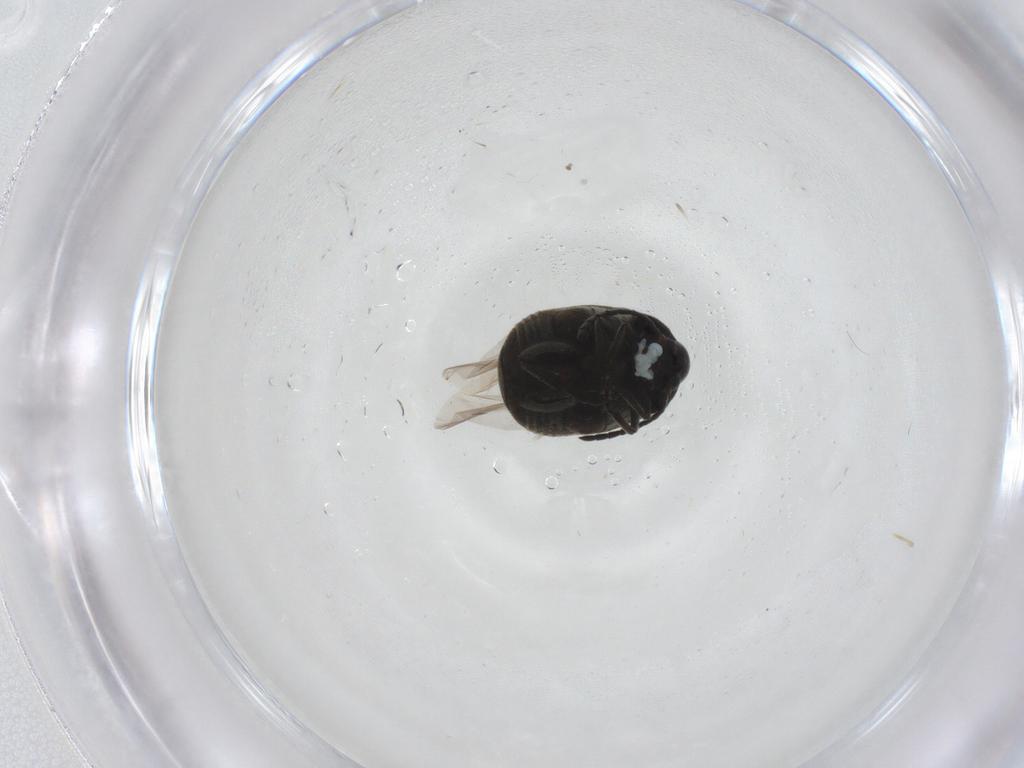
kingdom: Animalia
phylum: Arthropoda
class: Insecta
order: Coleoptera
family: Chrysomelidae
